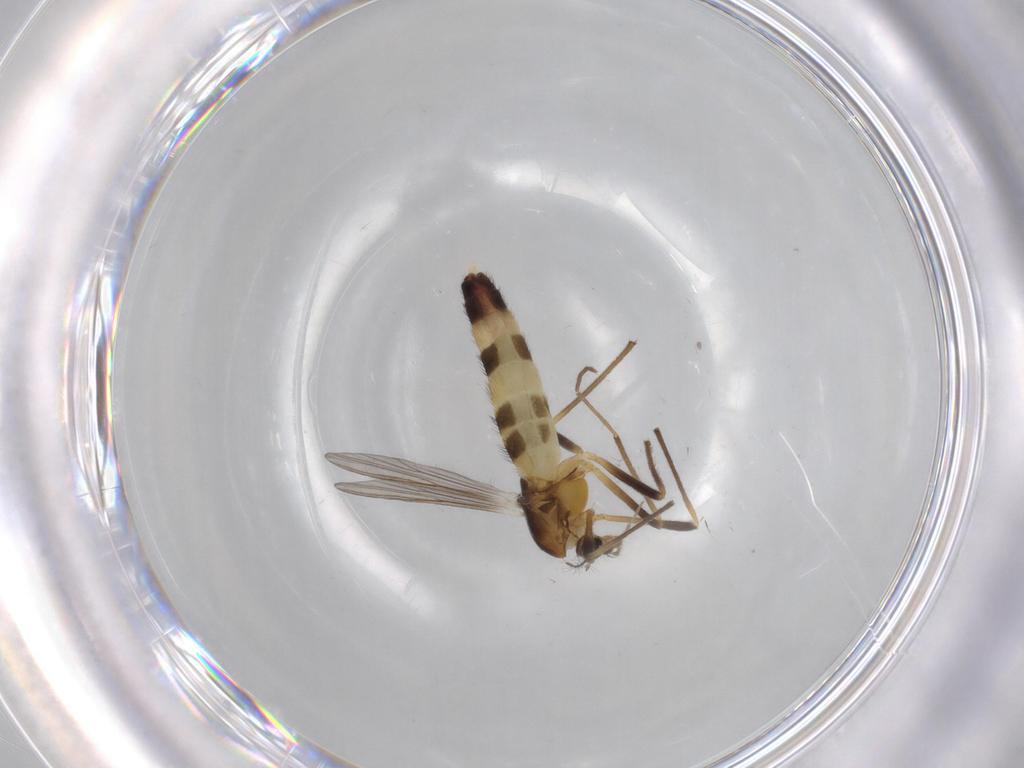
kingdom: Animalia
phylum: Arthropoda
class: Insecta
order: Diptera
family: Chironomidae
